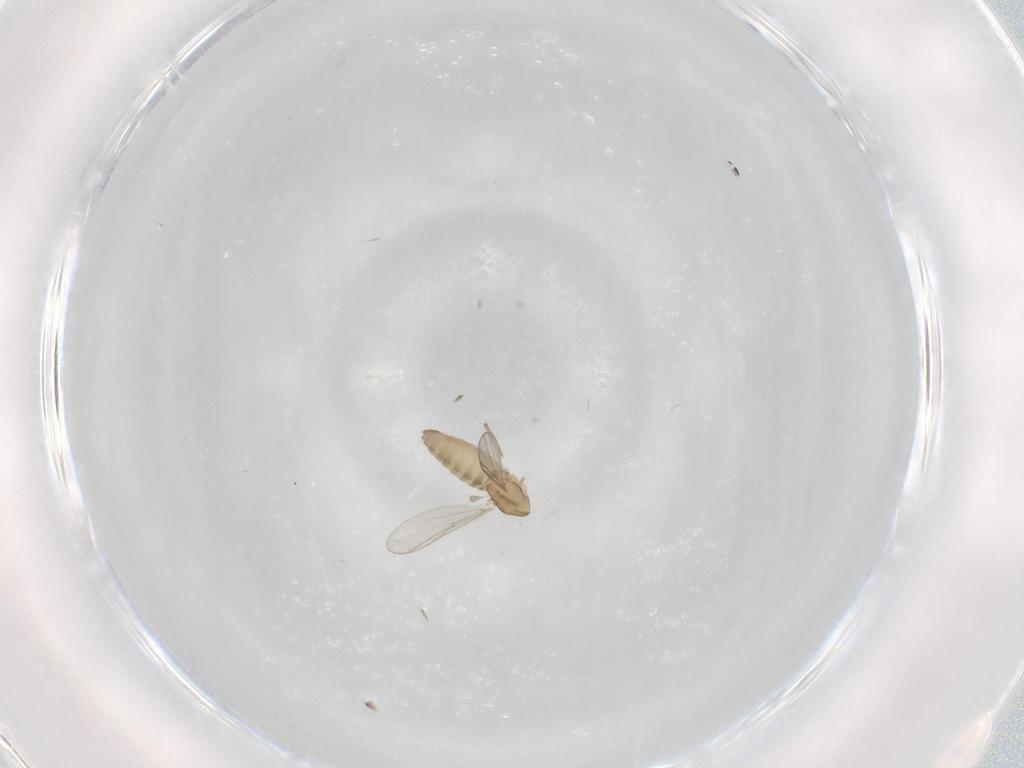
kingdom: Animalia
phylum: Arthropoda
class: Insecta
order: Diptera
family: Chironomidae
